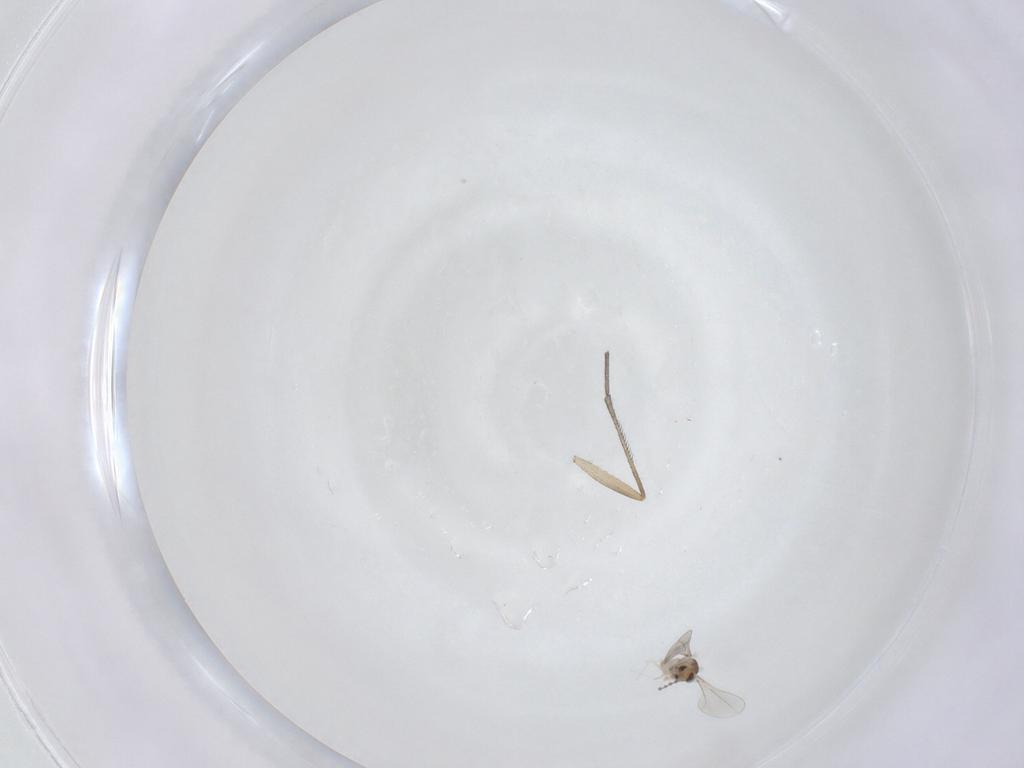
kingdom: Animalia
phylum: Arthropoda
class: Insecta
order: Diptera
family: Cecidomyiidae
